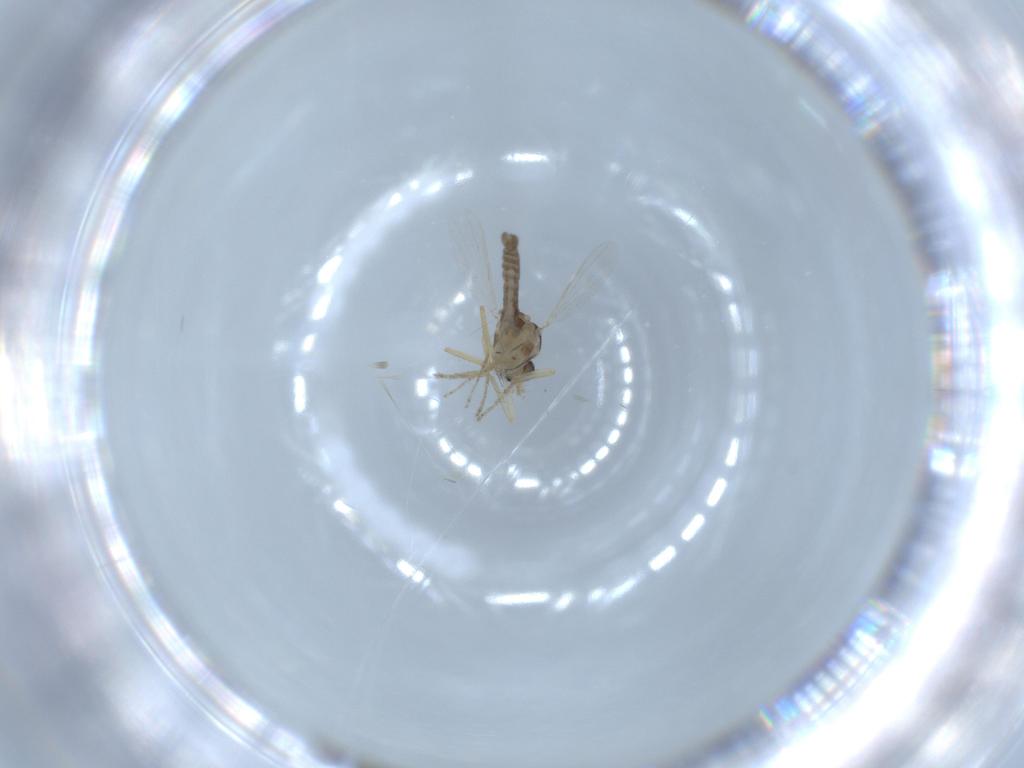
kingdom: Animalia
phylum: Arthropoda
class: Insecta
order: Diptera
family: Ceratopogonidae
